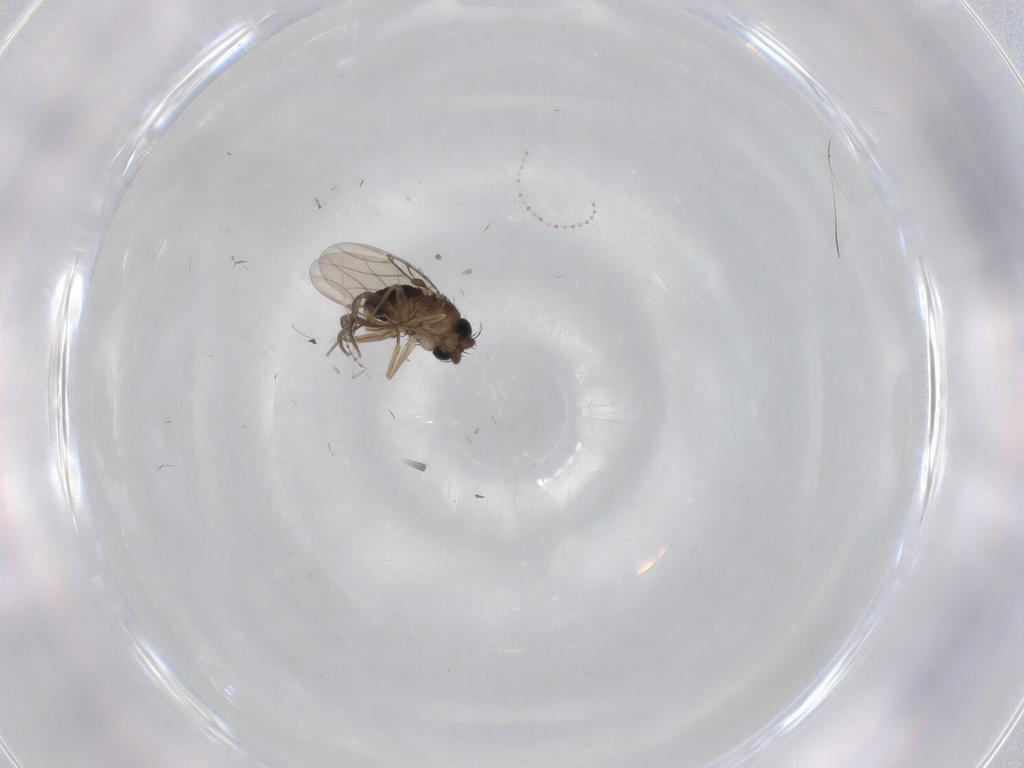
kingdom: Animalia
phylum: Arthropoda
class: Insecta
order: Diptera
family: Phoridae
